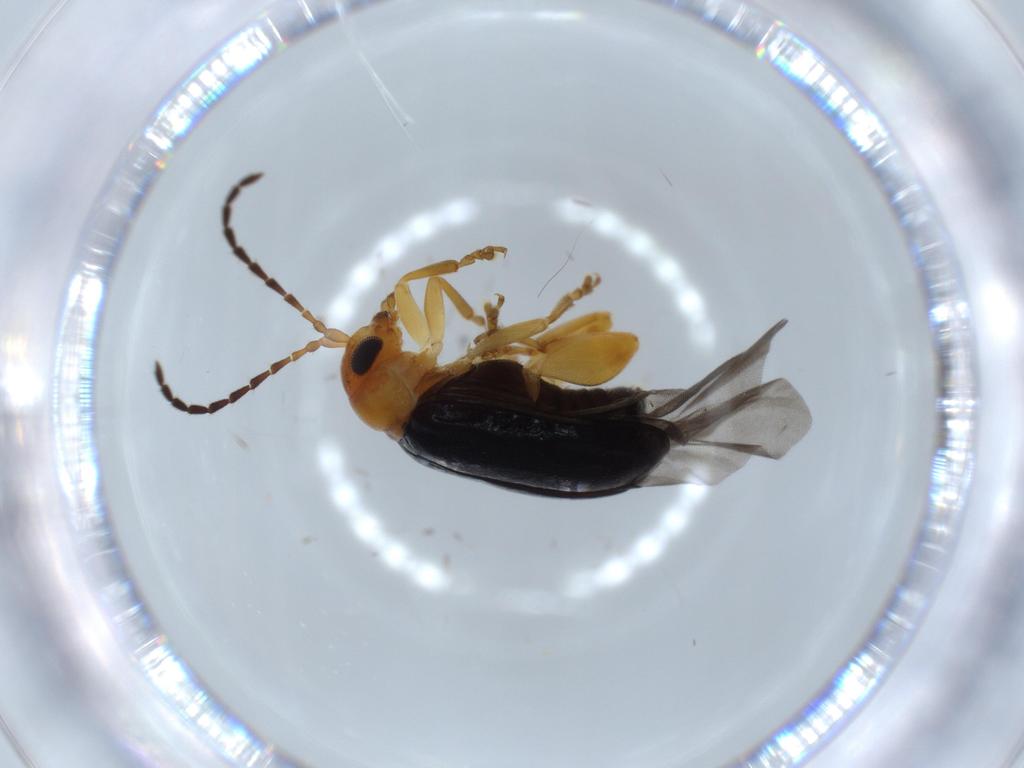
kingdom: Animalia
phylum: Arthropoda
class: Insecta
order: Coleoptera
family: Chrysomelidae
